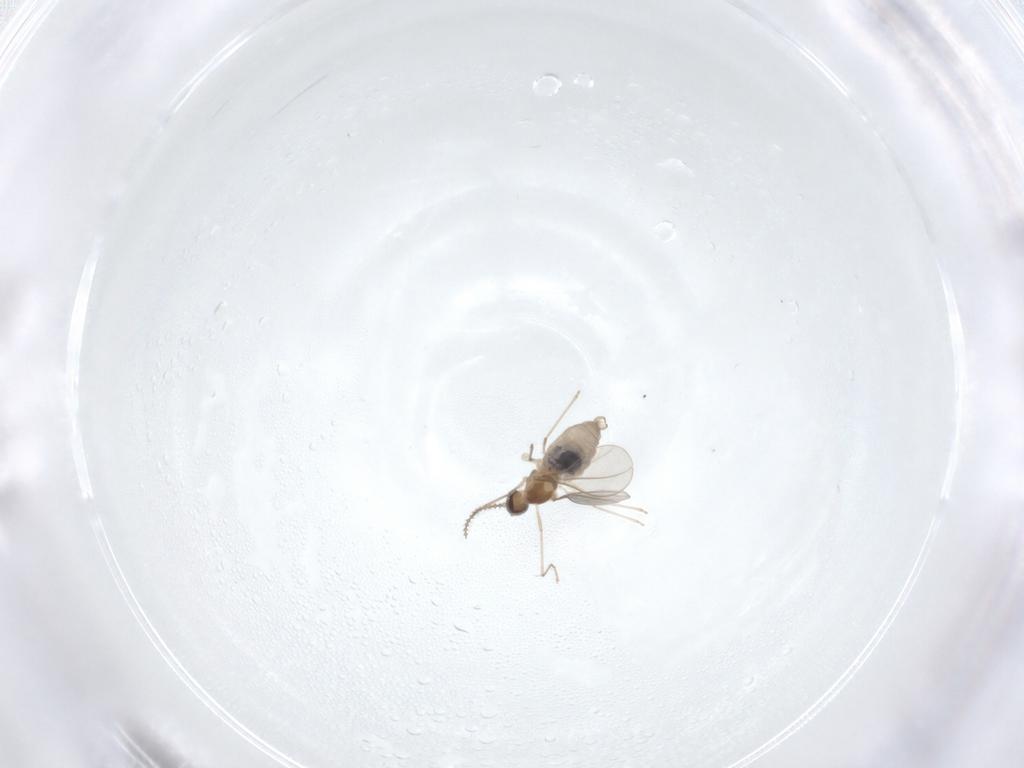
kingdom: Animalia
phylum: Arthropoda
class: Insecta
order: Diptera
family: Cecidomyiidae
